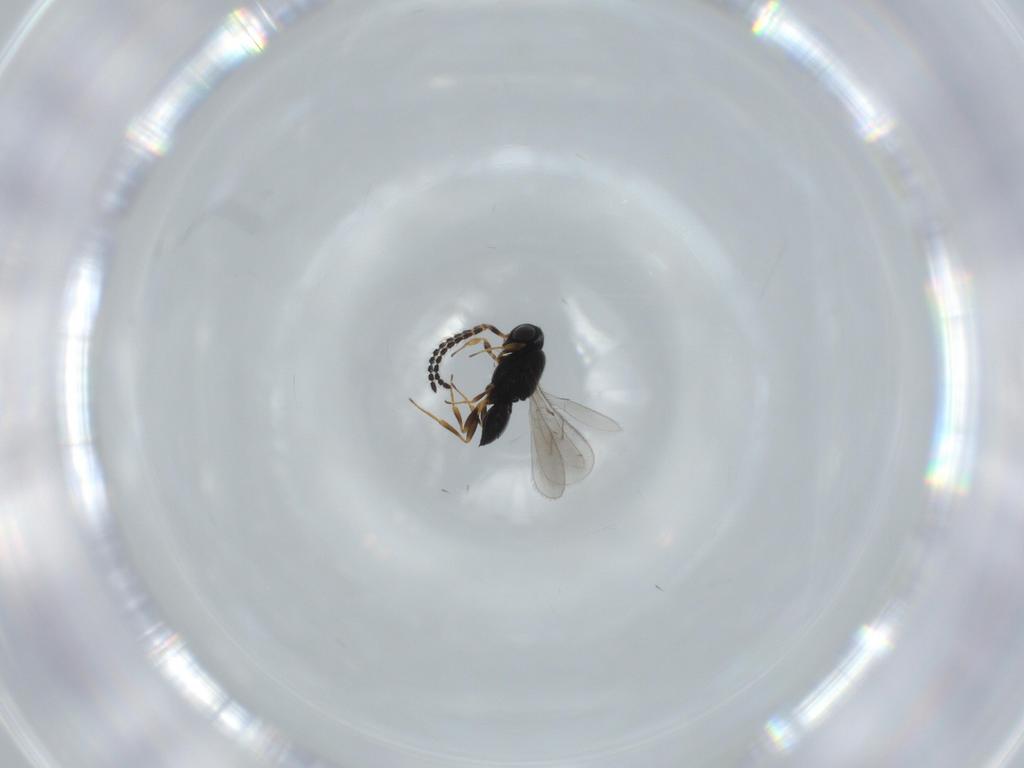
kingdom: Animalia
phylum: Arthropoda
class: Insecta
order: Hymenoptera
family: Scelionidae
